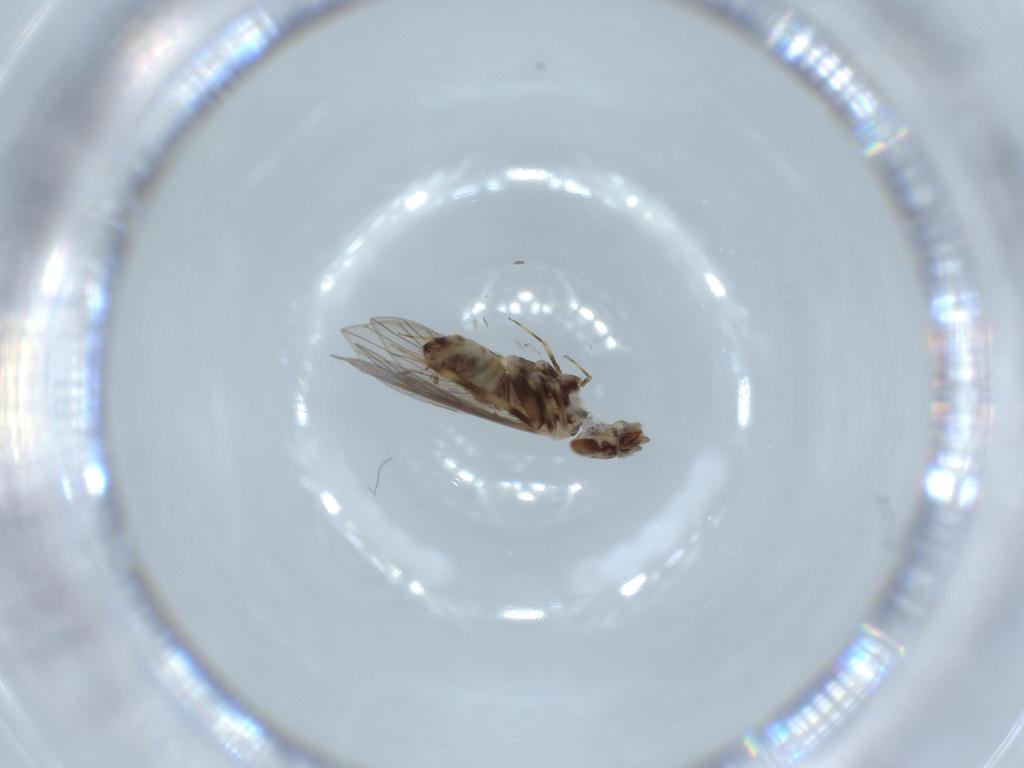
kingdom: Animalia
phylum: Arthropoda
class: Insecta
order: Psocodea
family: Lepidopsocidae
